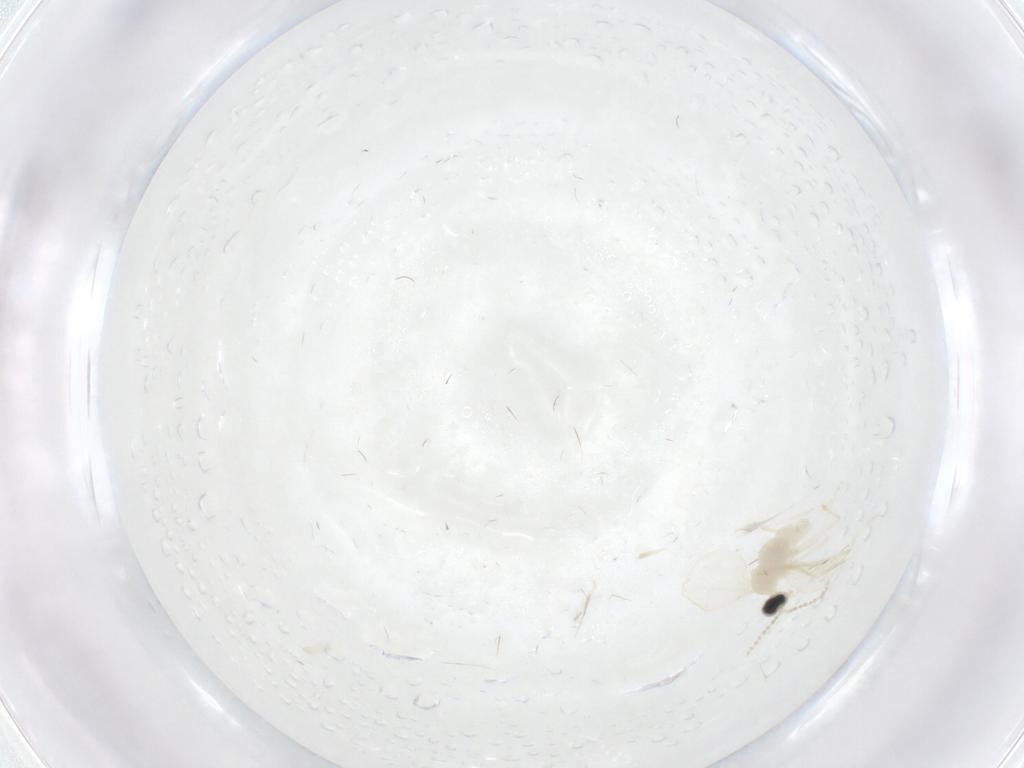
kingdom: Animalia
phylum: Arthropoda
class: Insecta
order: Diptera
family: Cecidomyiidae
